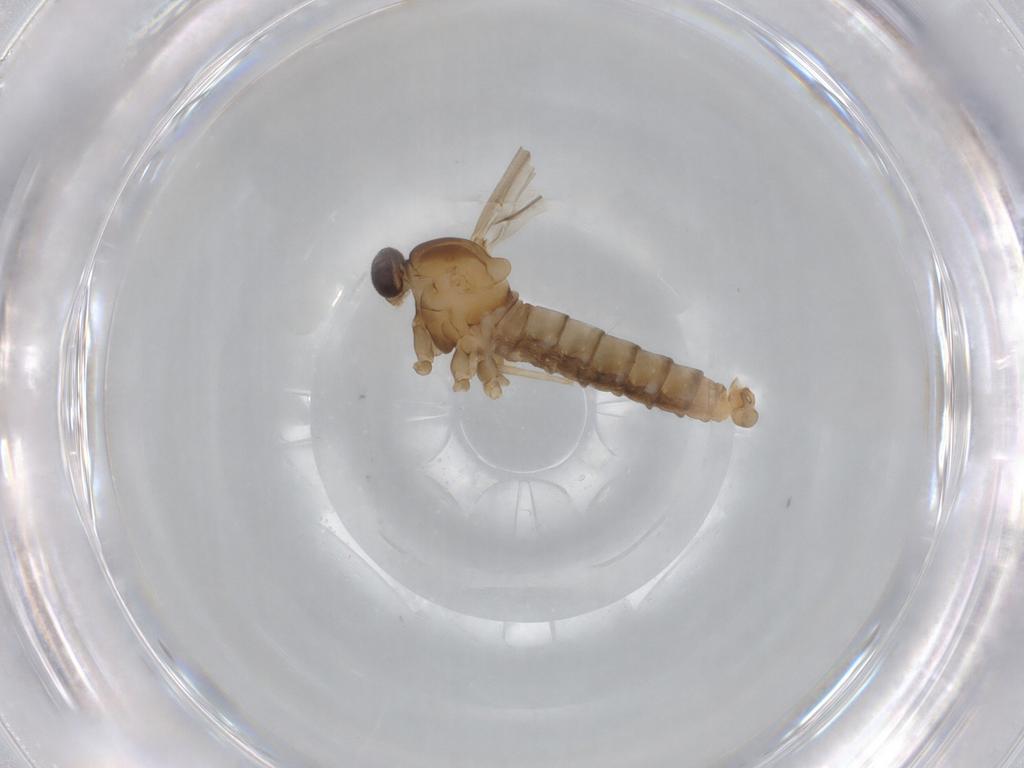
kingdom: Animalia
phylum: Arthropoda
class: Insecta
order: Diptera
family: Cecidomyiidae
